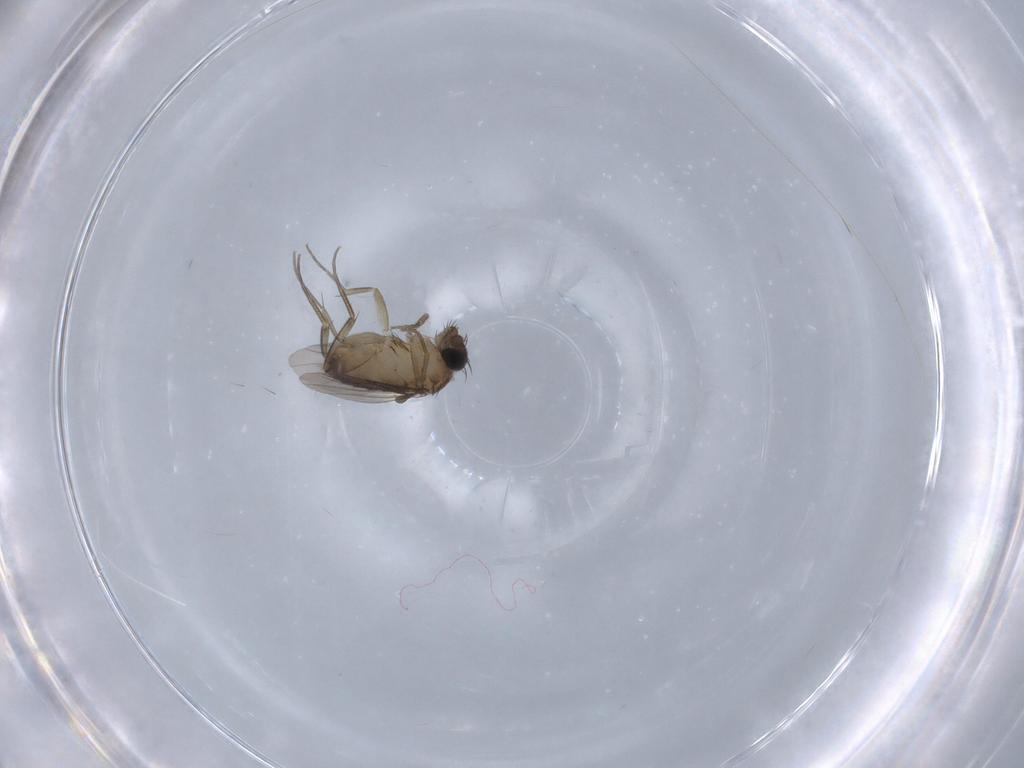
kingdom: Animalia
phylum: Arthropoda
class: Insecta
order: Diptera
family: Phoridae
